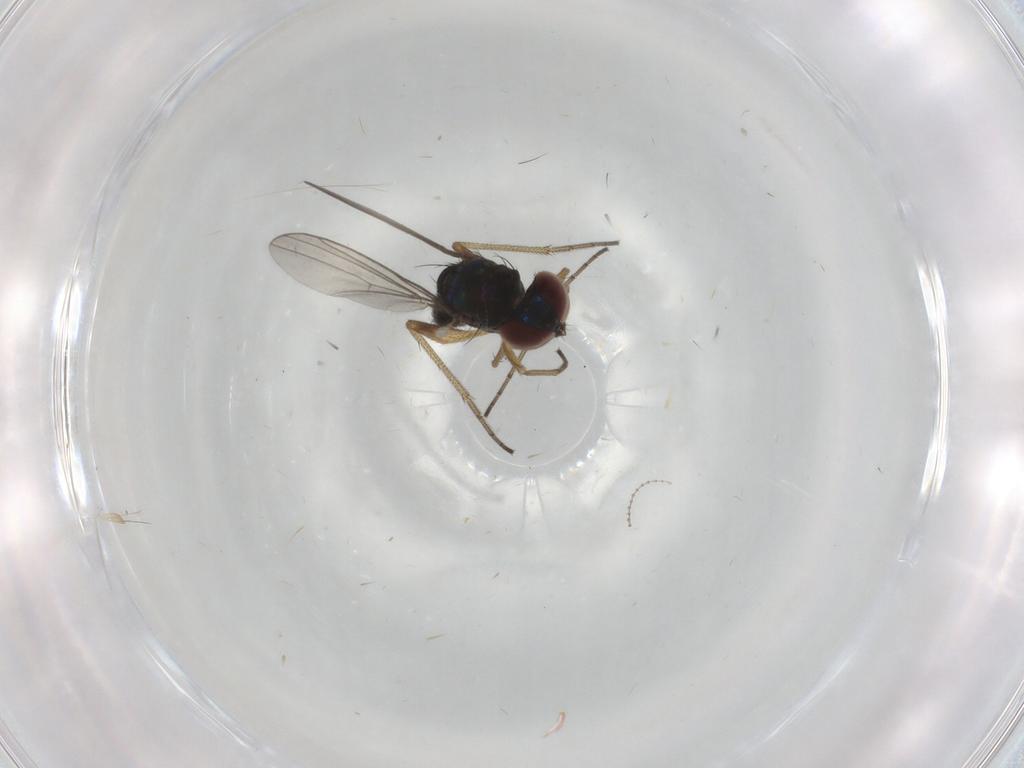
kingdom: Animalia
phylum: Arthropoda
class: Insecta
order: Diptera
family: Dolichopodidae
